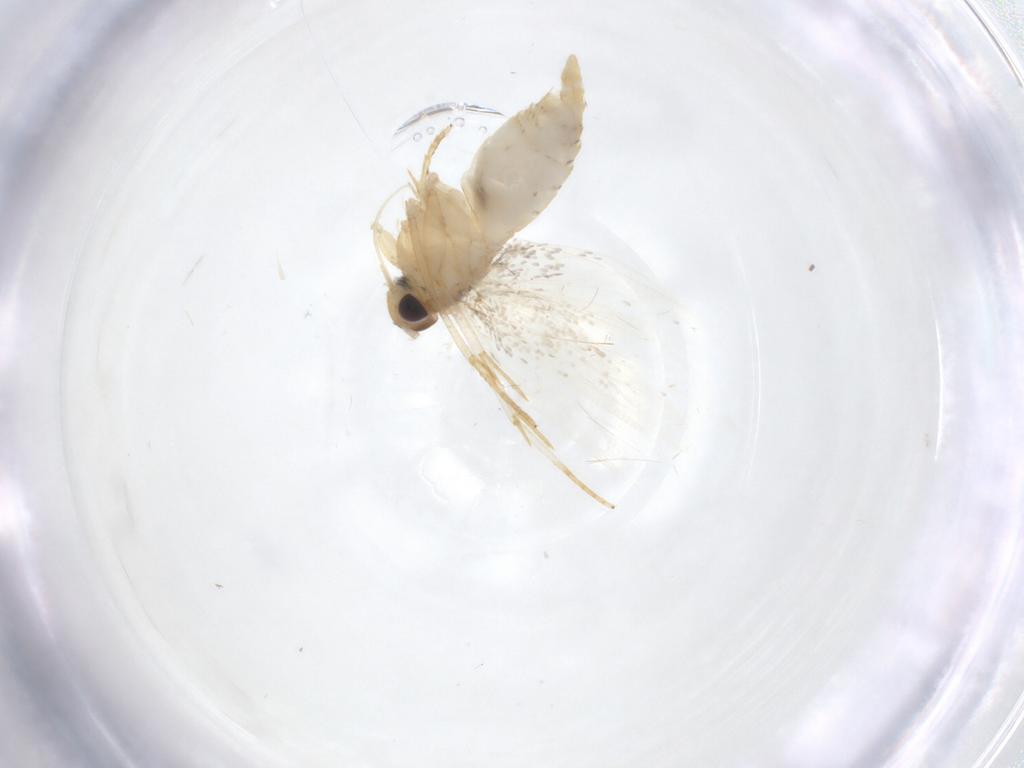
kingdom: Animalia
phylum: Arthropoda
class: Insecta
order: Lepidoptera
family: Oecophoridae
